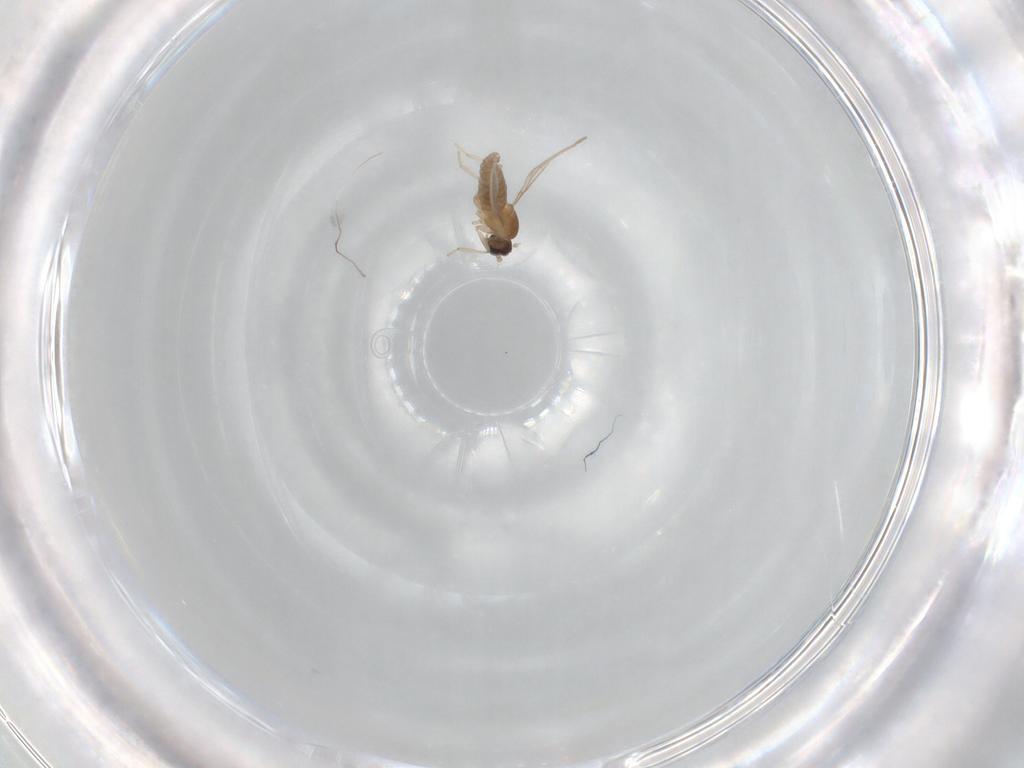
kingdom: Animalia
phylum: Arthropoda
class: Insecta
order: Diptera
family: Cecidomyiidae
